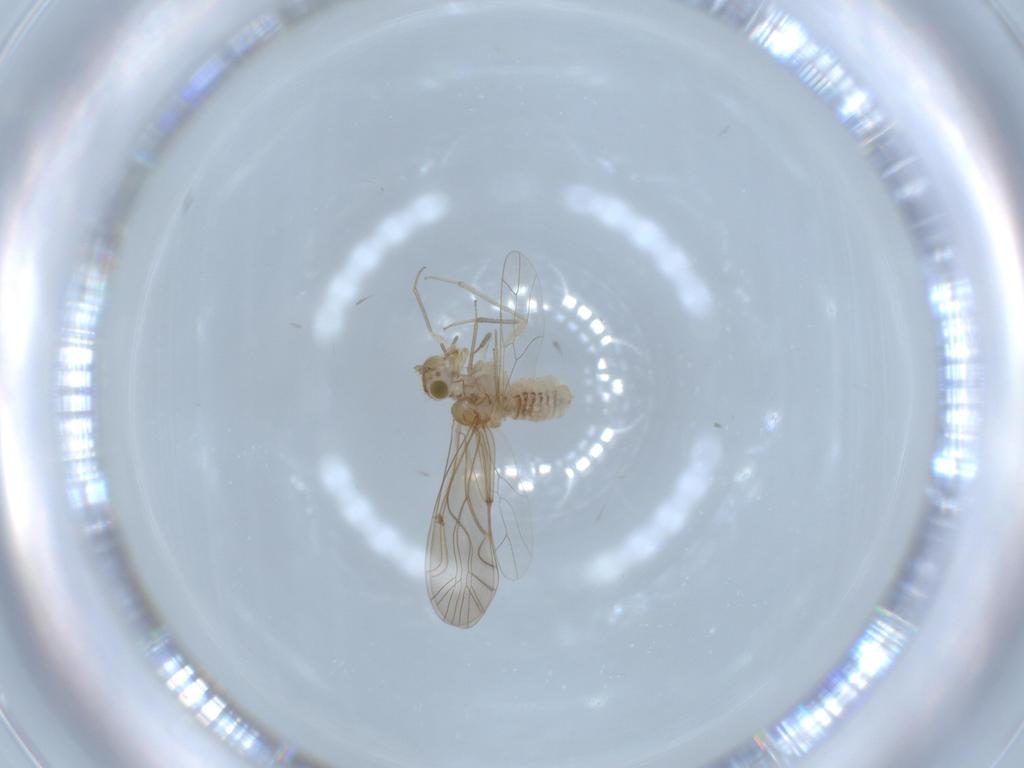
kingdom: Animalia
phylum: Arthropoda
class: Insecta
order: Psocodea
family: Lachesillidae
